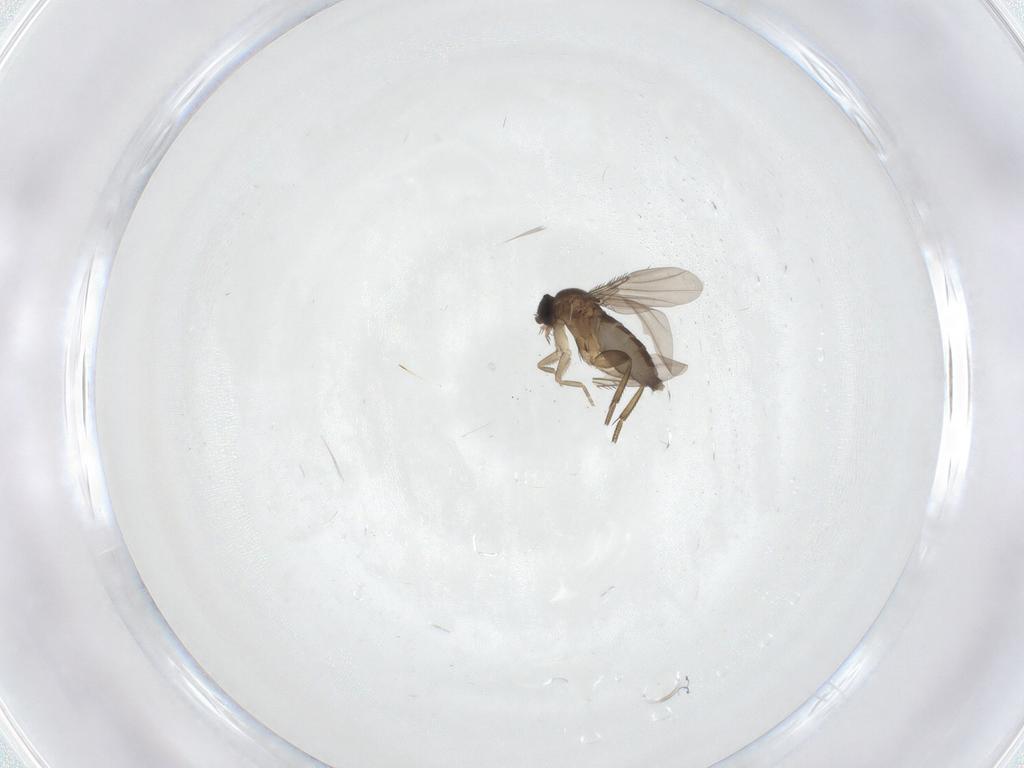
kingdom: Animalia
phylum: Arthropoda
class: Insecta
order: Diptera
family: Phoridae
